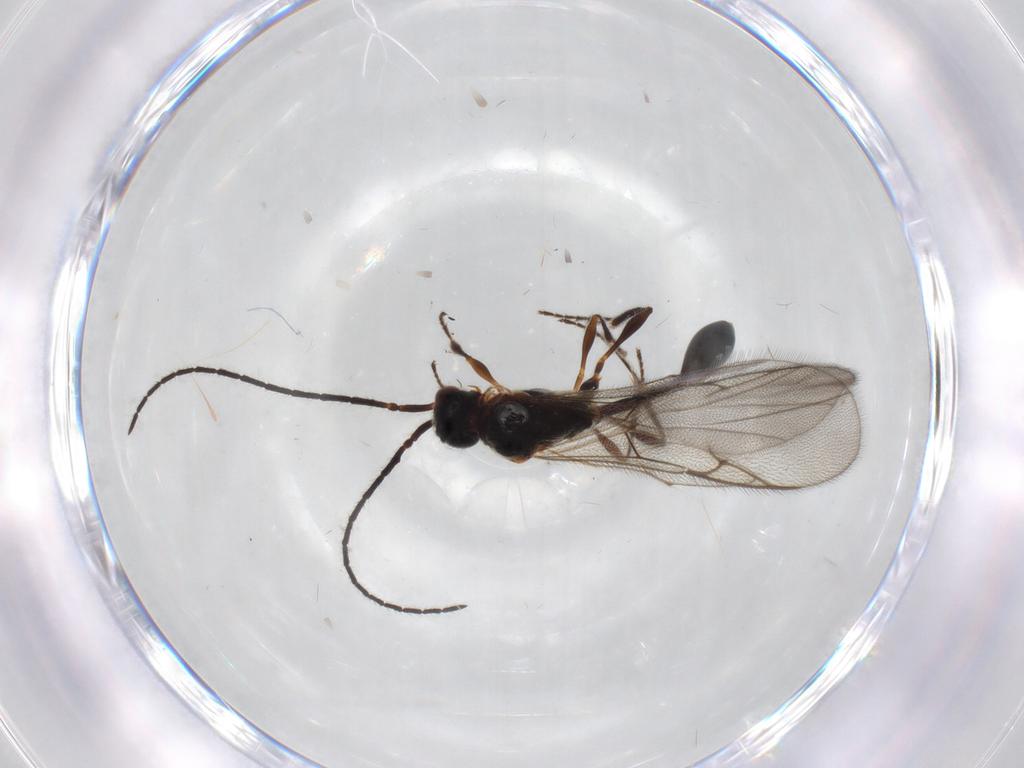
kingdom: Animalia
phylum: Arthropoda
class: Insecta
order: Hymenoptera
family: Diapriidae
